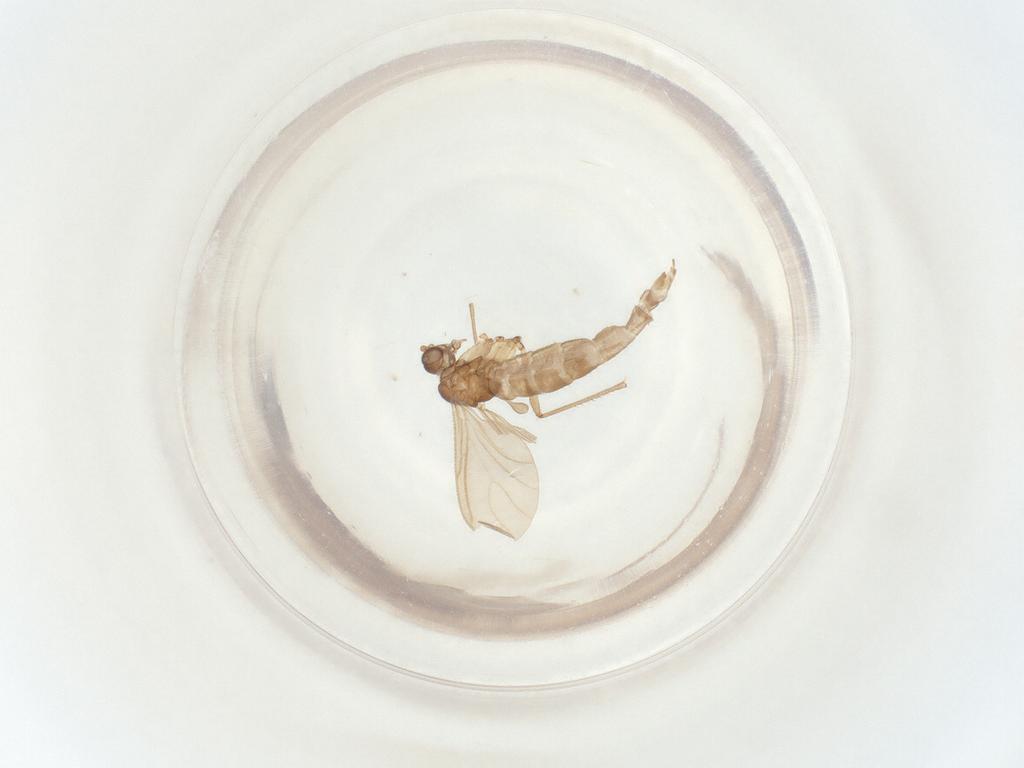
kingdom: Animalia
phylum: Arthropoda
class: Insecta
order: Diptera
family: Sciaridae
